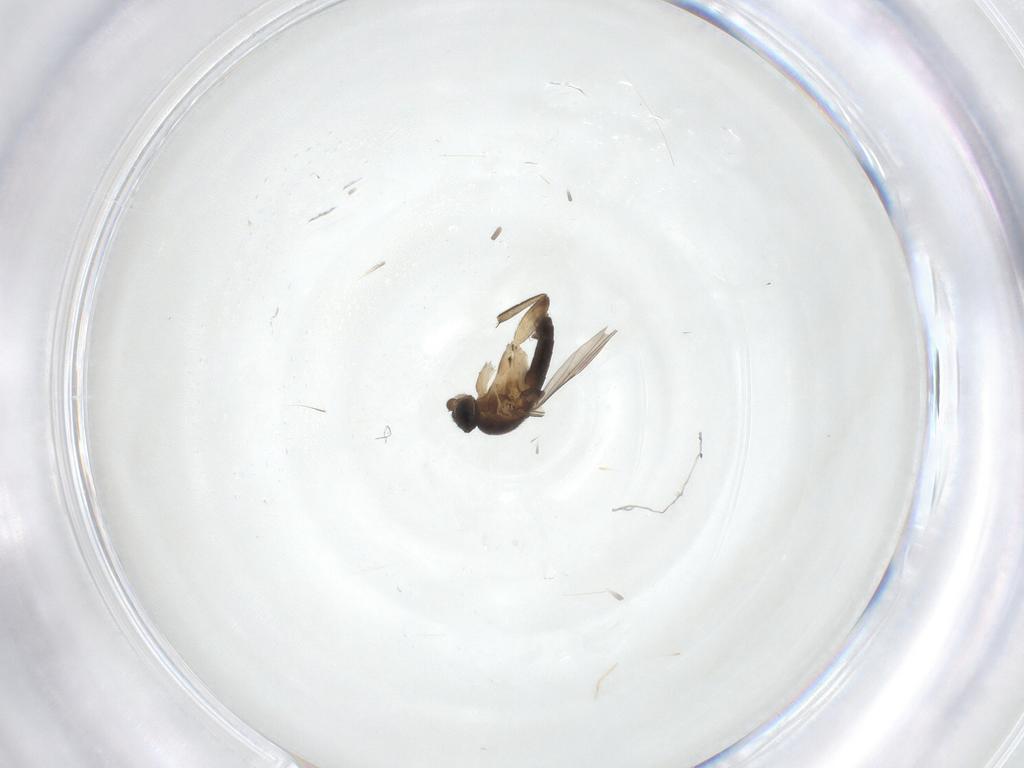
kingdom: Animalia
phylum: Arthropoda
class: Insecta
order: Diptera
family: Phoridae
